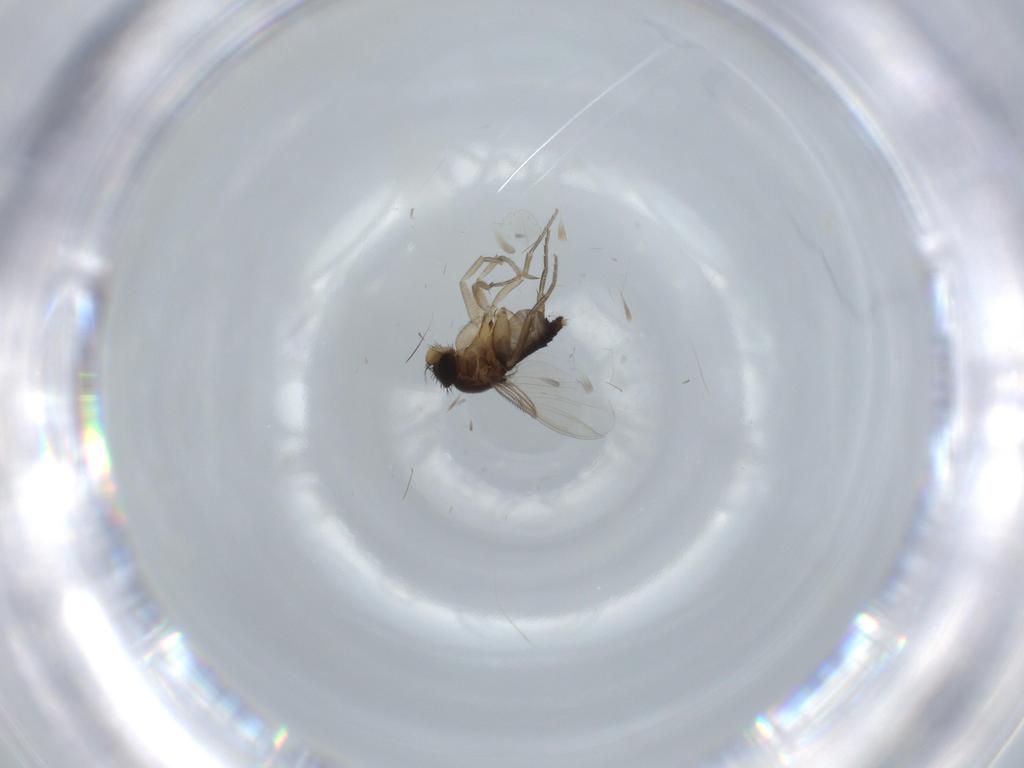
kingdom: Animalia
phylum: Arthropoda
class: Insecta
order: Diptera
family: Phoridae
